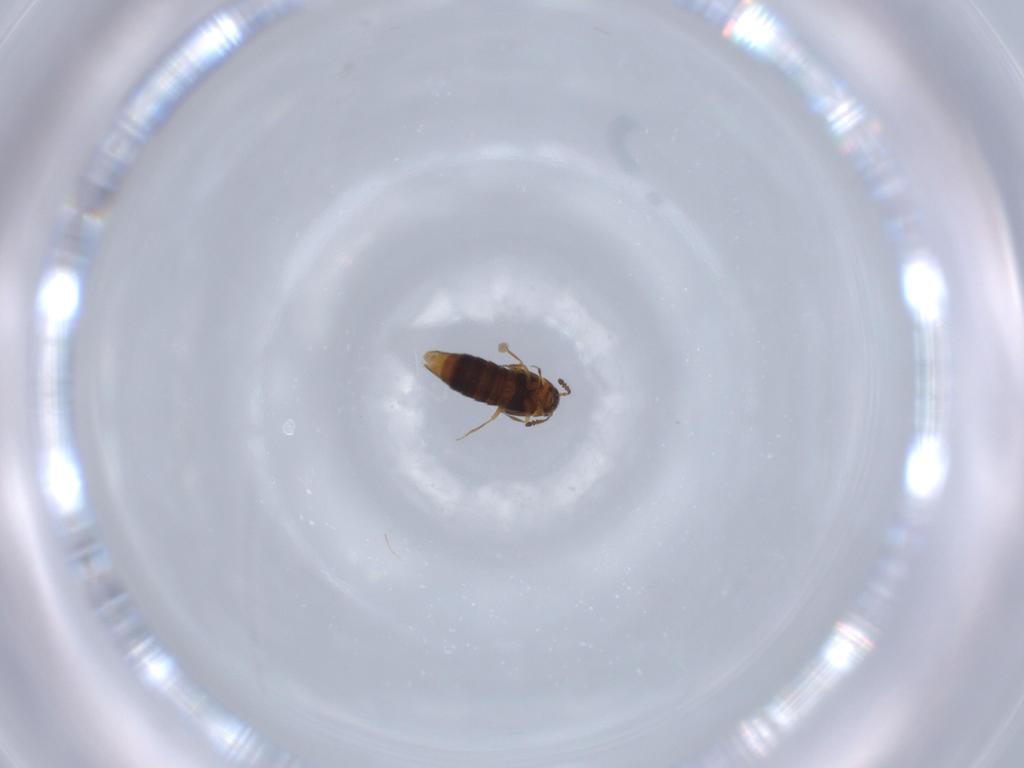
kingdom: Animalia
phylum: Arthropoda
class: Insecta
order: Coleoptera
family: Staphylinidae
